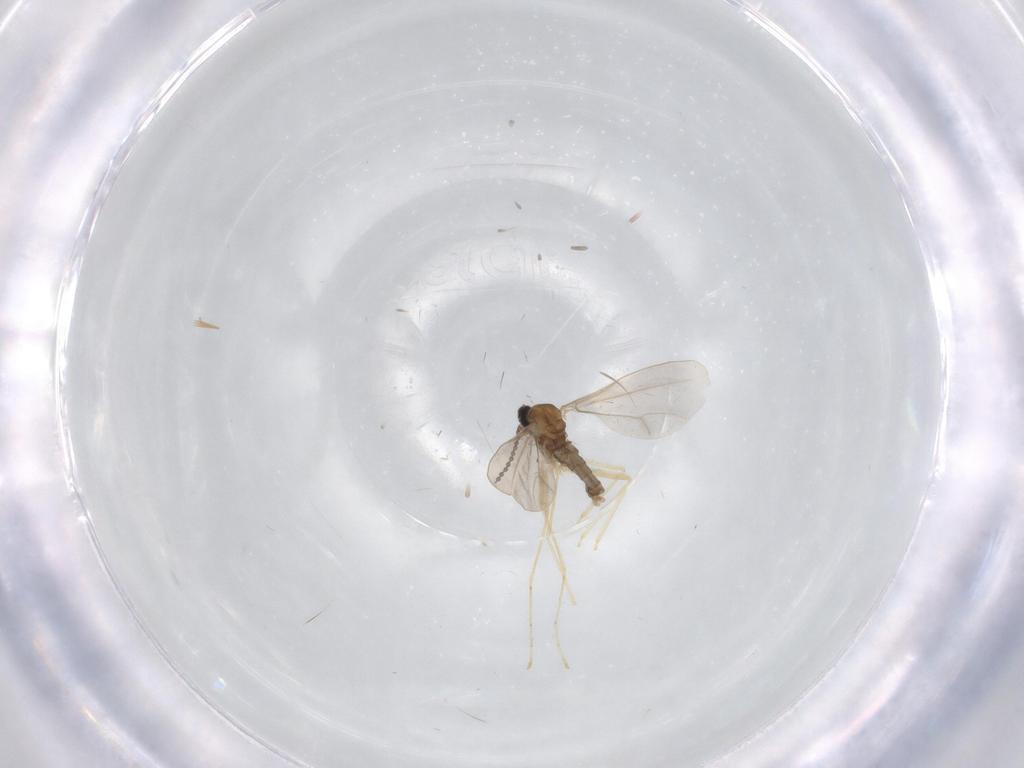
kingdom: Animalia
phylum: Arthropoda
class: Insecta
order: Diptera
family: Cecidomyiidae
